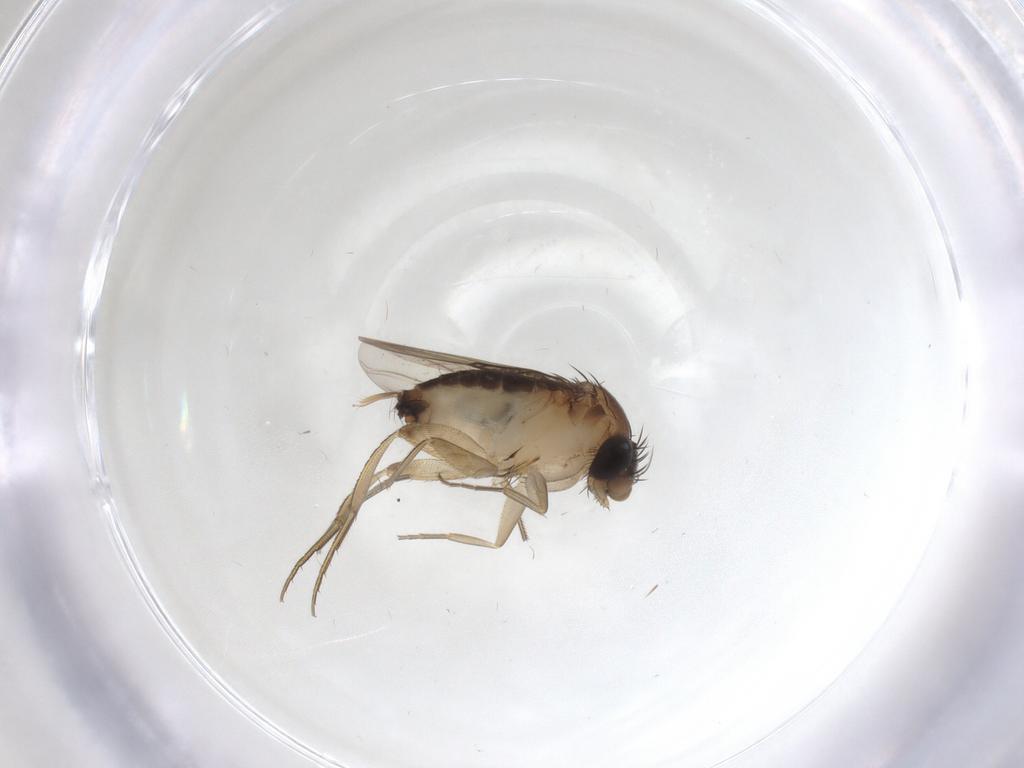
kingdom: Animalia
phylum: Arthropoda
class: Insecta
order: Diptera
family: Phoridae
